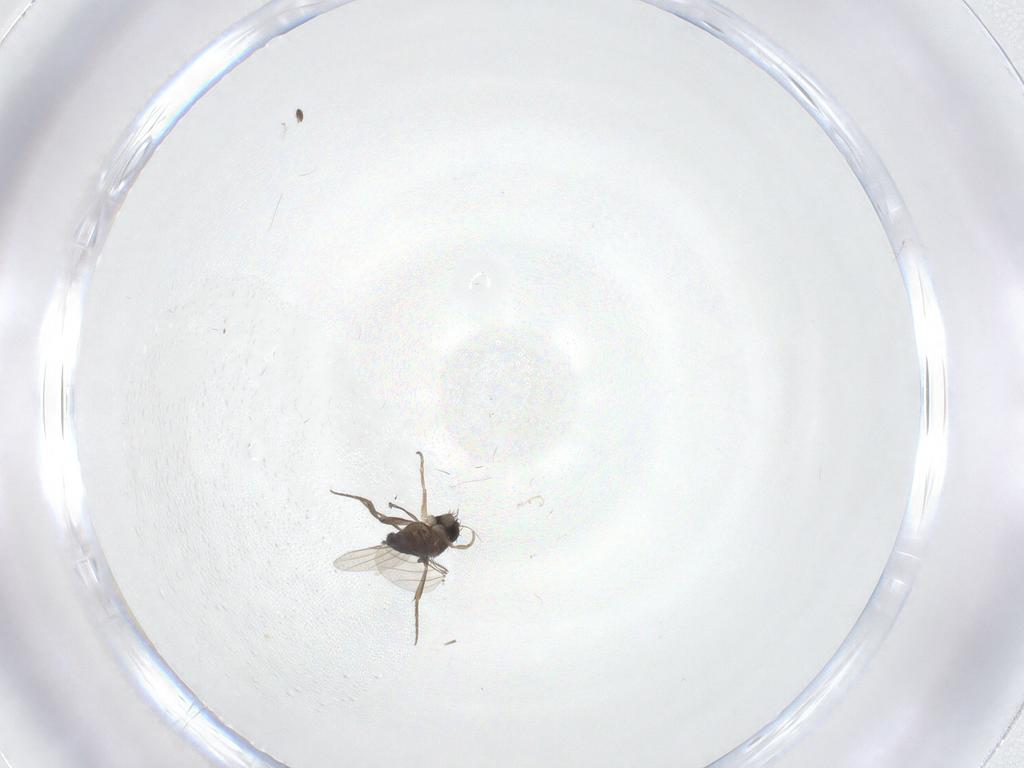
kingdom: Animalia
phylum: Arthropoda
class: Insecta
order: Diptera
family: Phoridae
